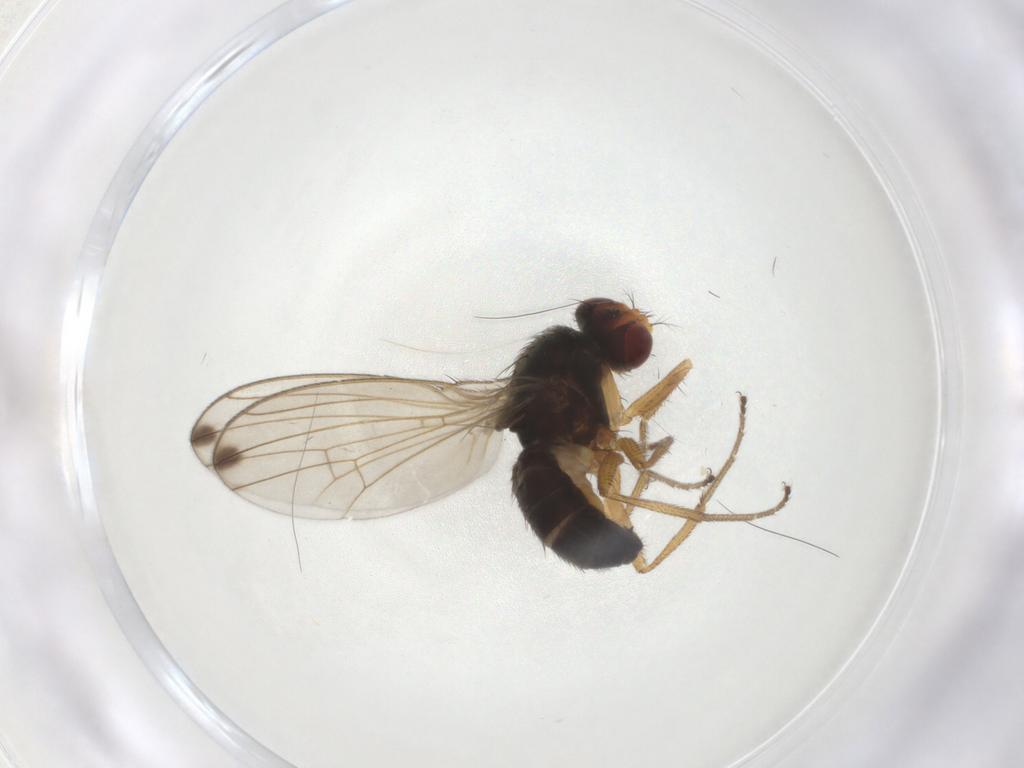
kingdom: Animalia
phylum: Arthropoda
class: Insecta
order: Diptera
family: Drosophilidae
